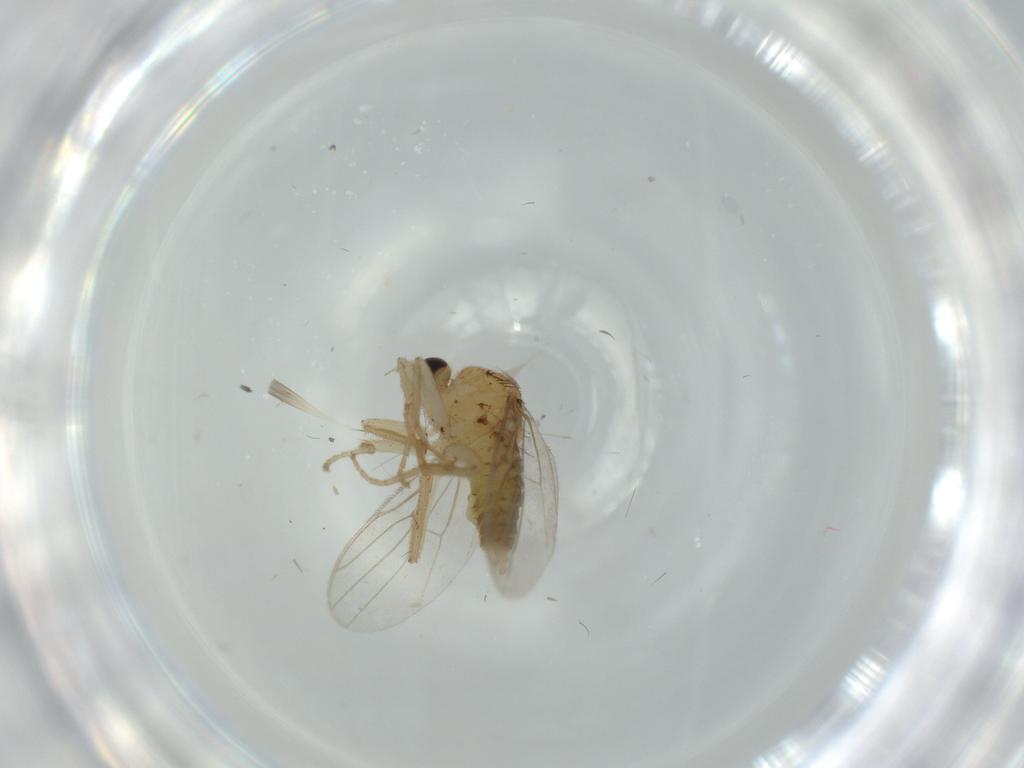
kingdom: Animalia
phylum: Arthropoda
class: Insecta
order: Diptera
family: Hybotidae
